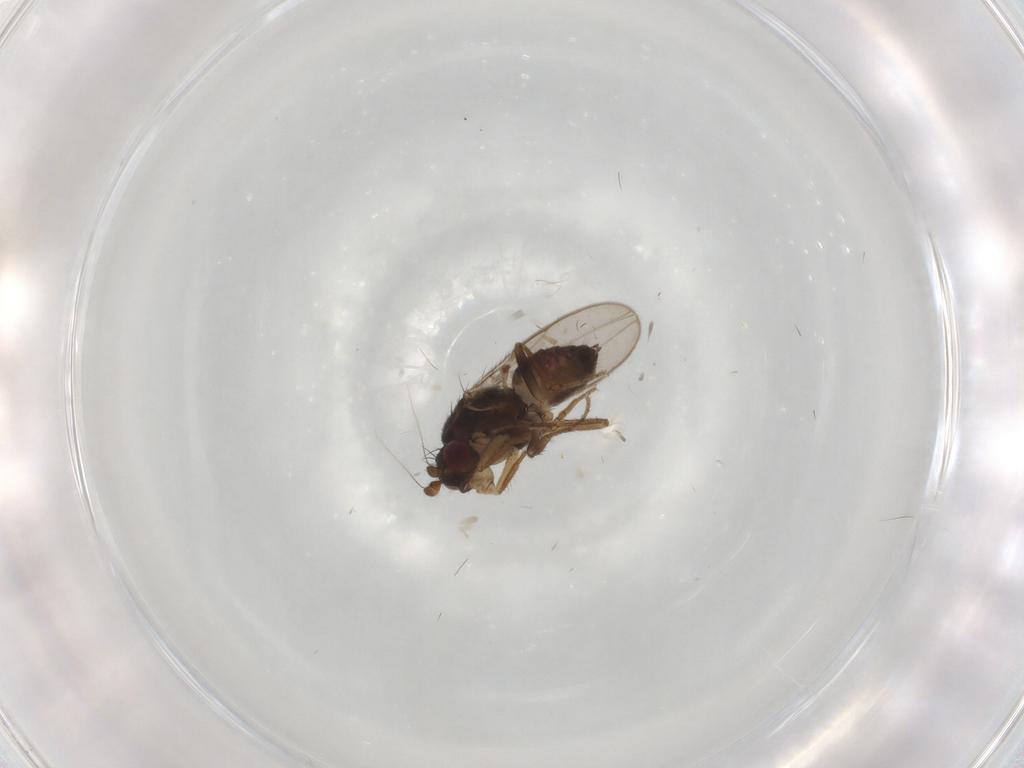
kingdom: Animalia
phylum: Arthropoda
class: Insecta
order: Diptera
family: Sphaeroceridae
